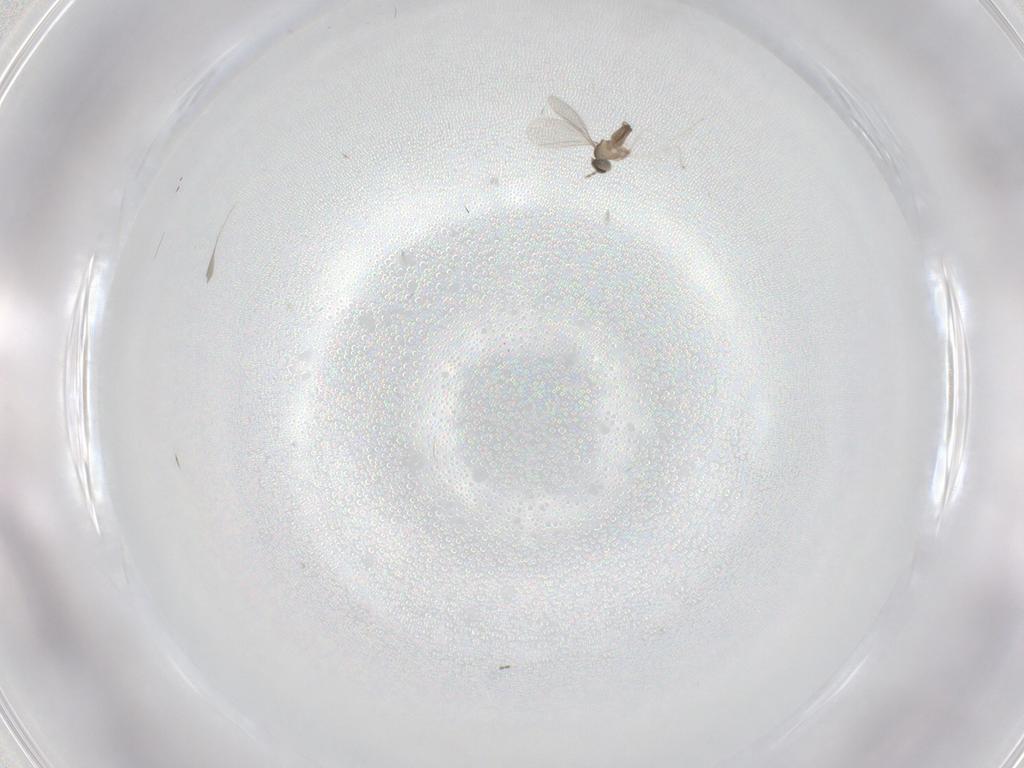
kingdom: Animalia
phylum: Arthropoda
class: Insecta
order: Diptera
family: Cecidomyiidae
